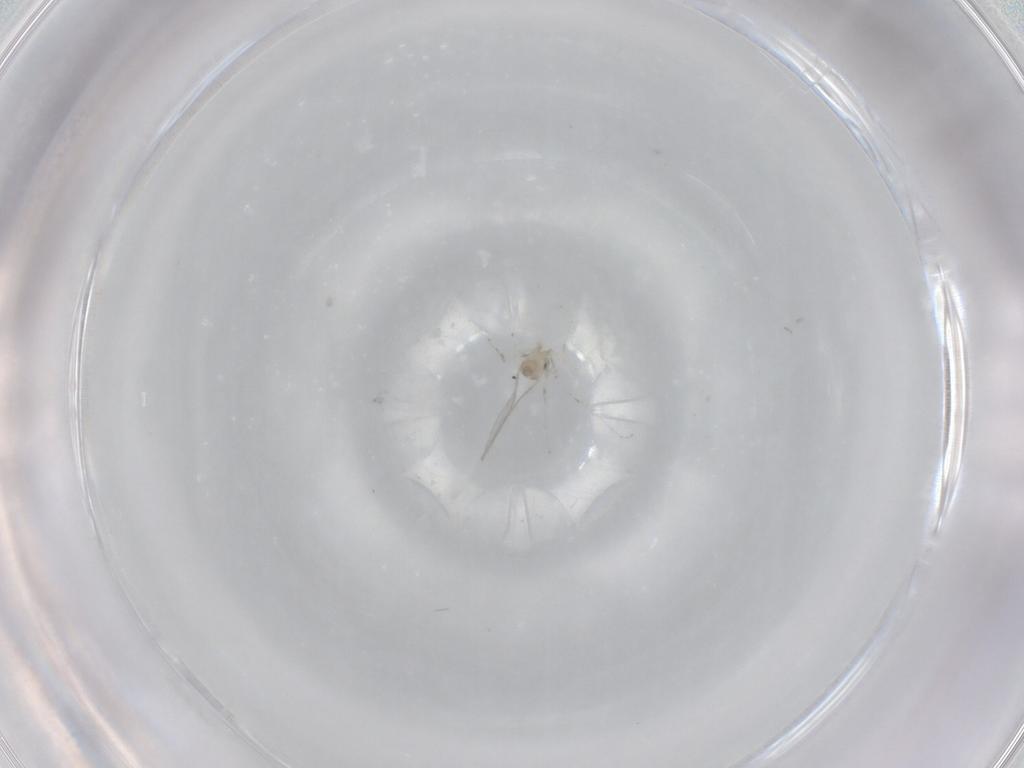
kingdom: Animalia
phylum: Arthropoda
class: Insecta
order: Diptera
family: Cecidomyiidae
